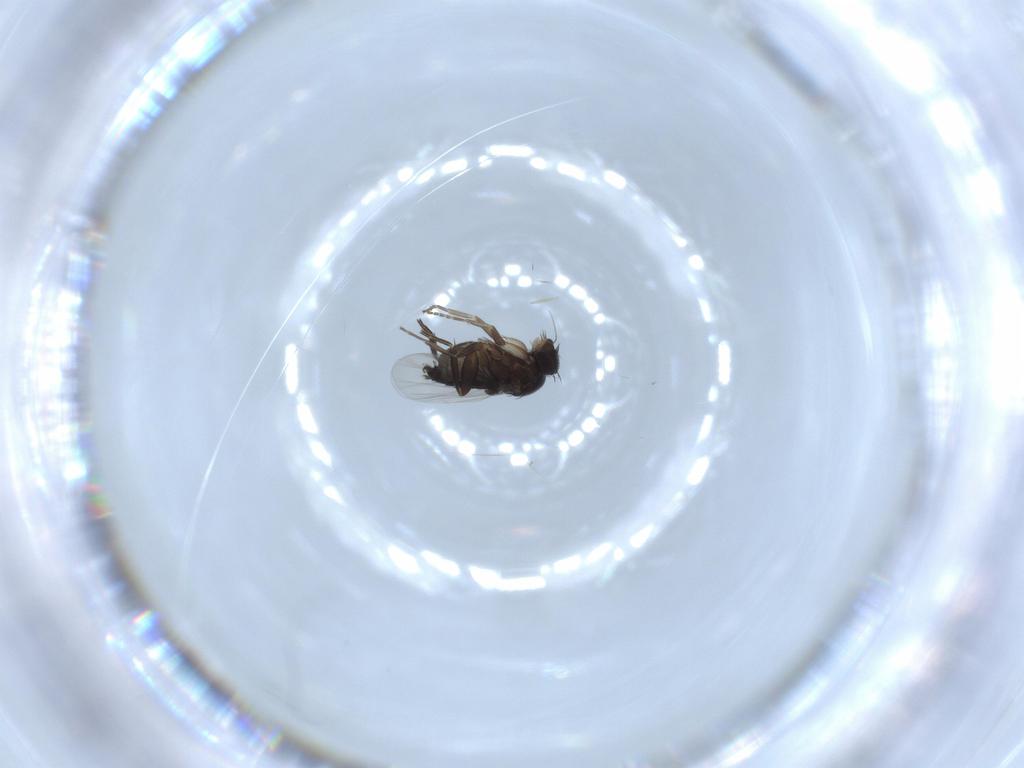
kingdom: Animalia
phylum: Arthropoda
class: Insecta
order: Diptera
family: Phoridae
